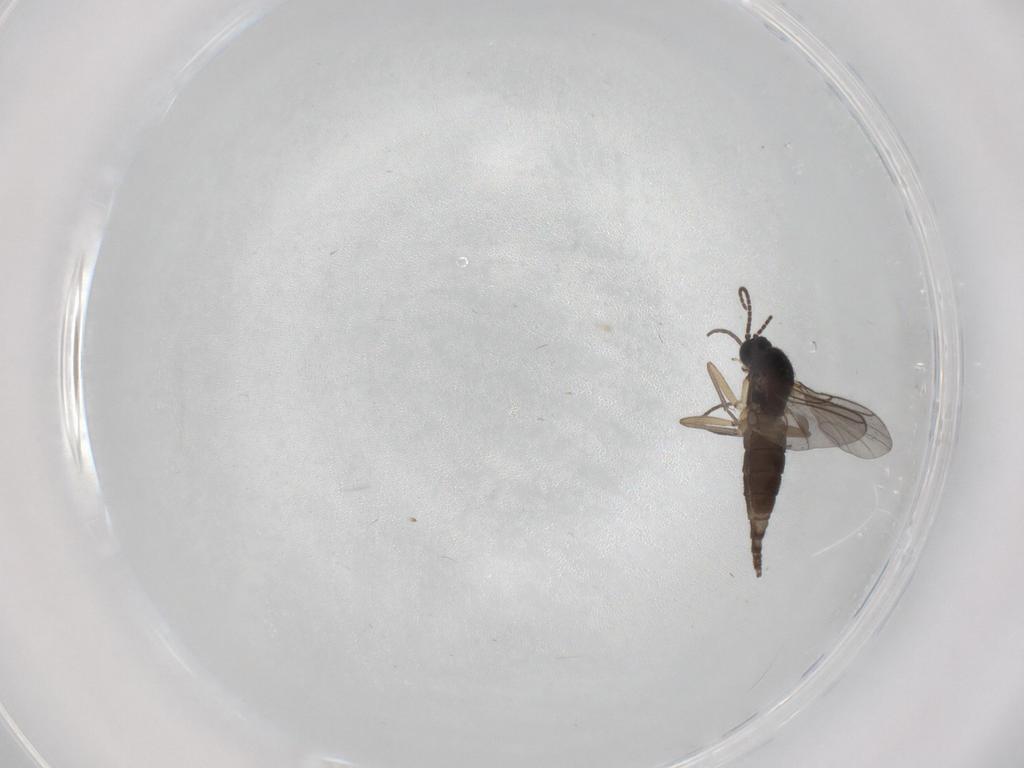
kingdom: Animalia
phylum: Arthropoda
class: Insecta
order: Diptera
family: Sciaridae
